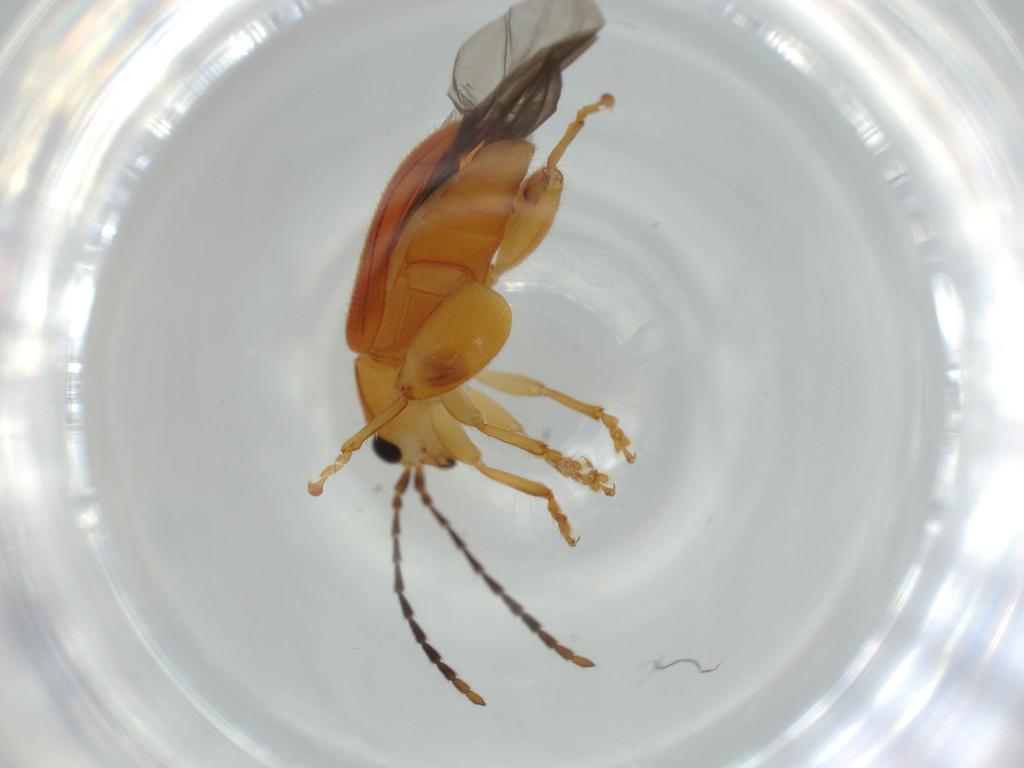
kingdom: Animalia
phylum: Arthropoda
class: Insecta
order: Coleoptera
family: Chrysomelidae
